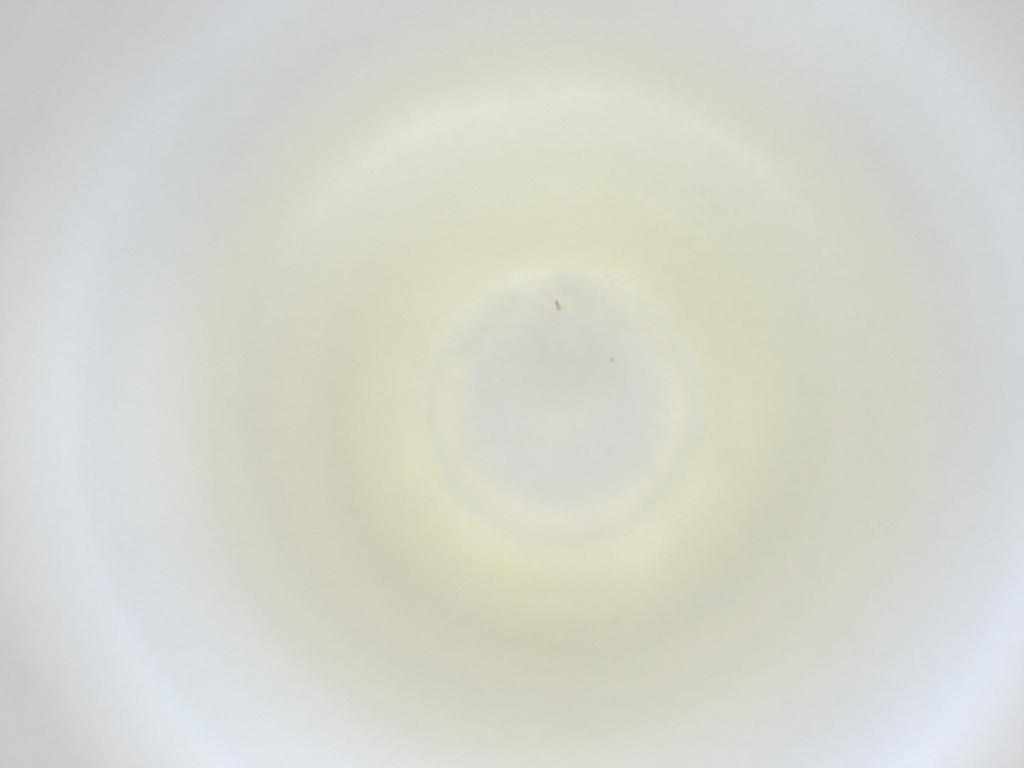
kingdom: Animalia
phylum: Arthropoda
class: Insecta
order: Diptera
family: Cecidomyiidae
